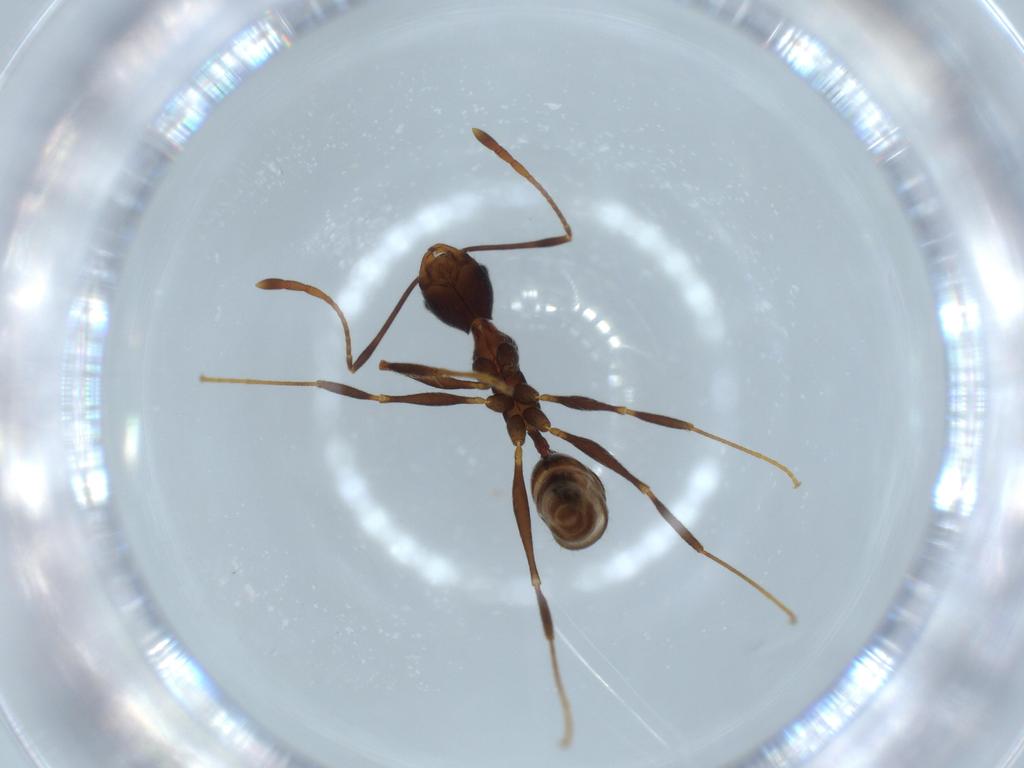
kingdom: Animalia
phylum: Arthropoda
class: Insecta
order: Hymenoptera
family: Formicidae
